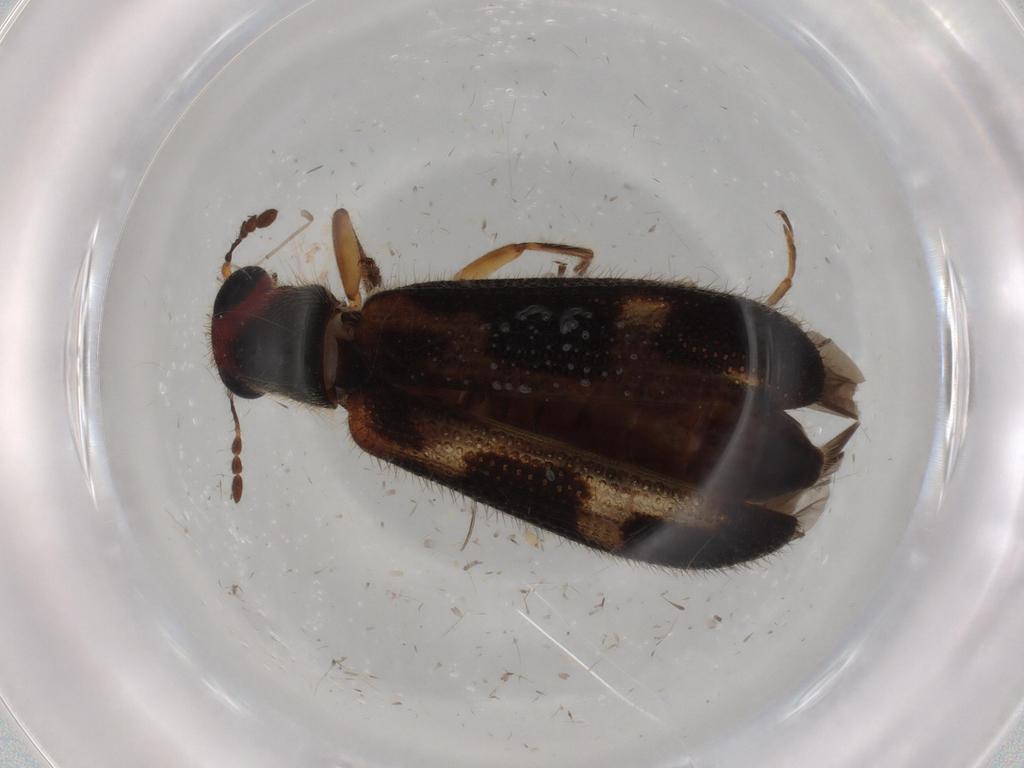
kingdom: Animalia
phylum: Arthropoda
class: Insecta
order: Coleoptera
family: Cleridae
